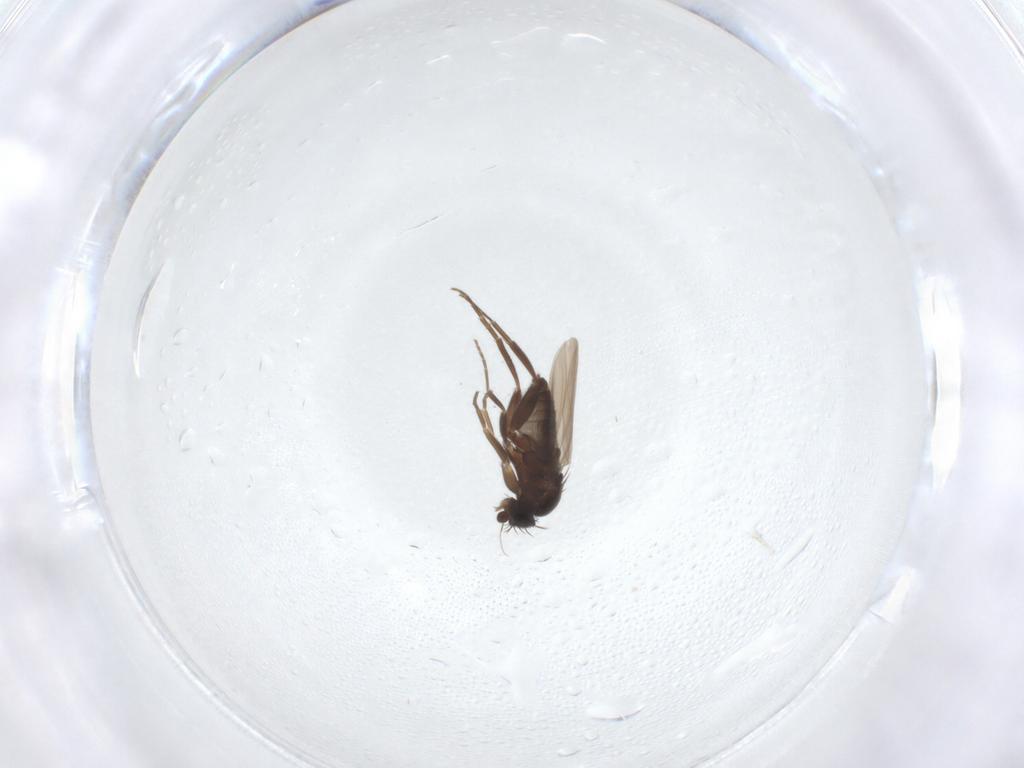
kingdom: Animalia
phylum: Arthropoda
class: Insecta
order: Diptera
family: Phoridae
